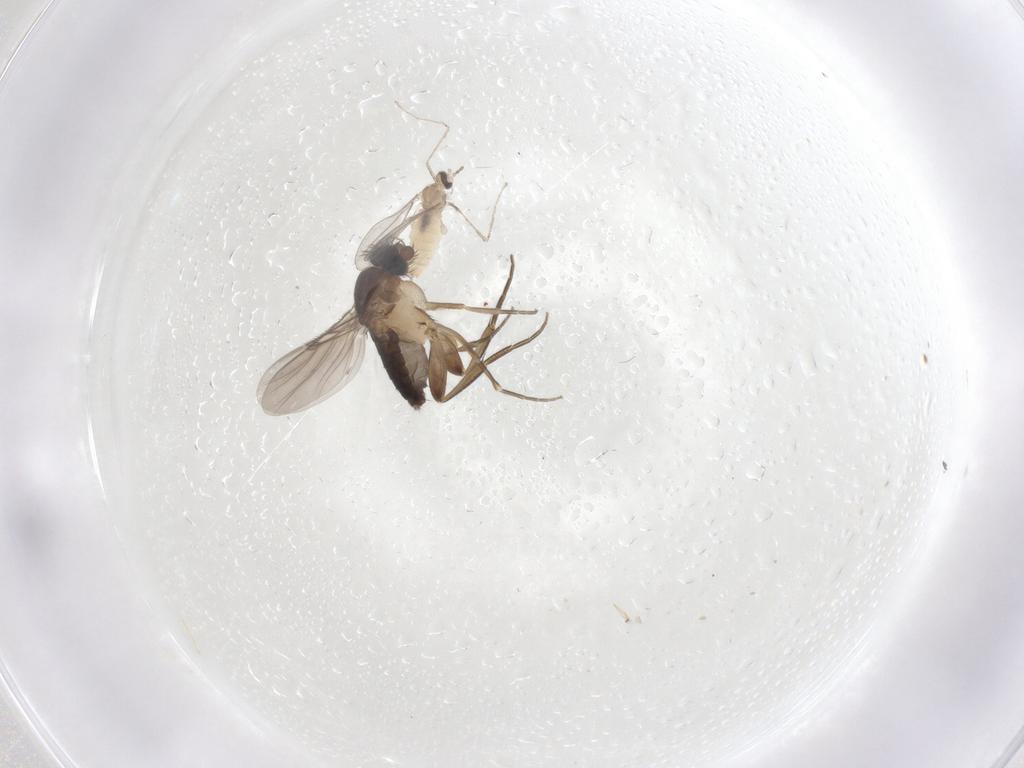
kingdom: Animalia
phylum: Arthropoda
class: Insecta
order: Diptera
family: Phoridae
